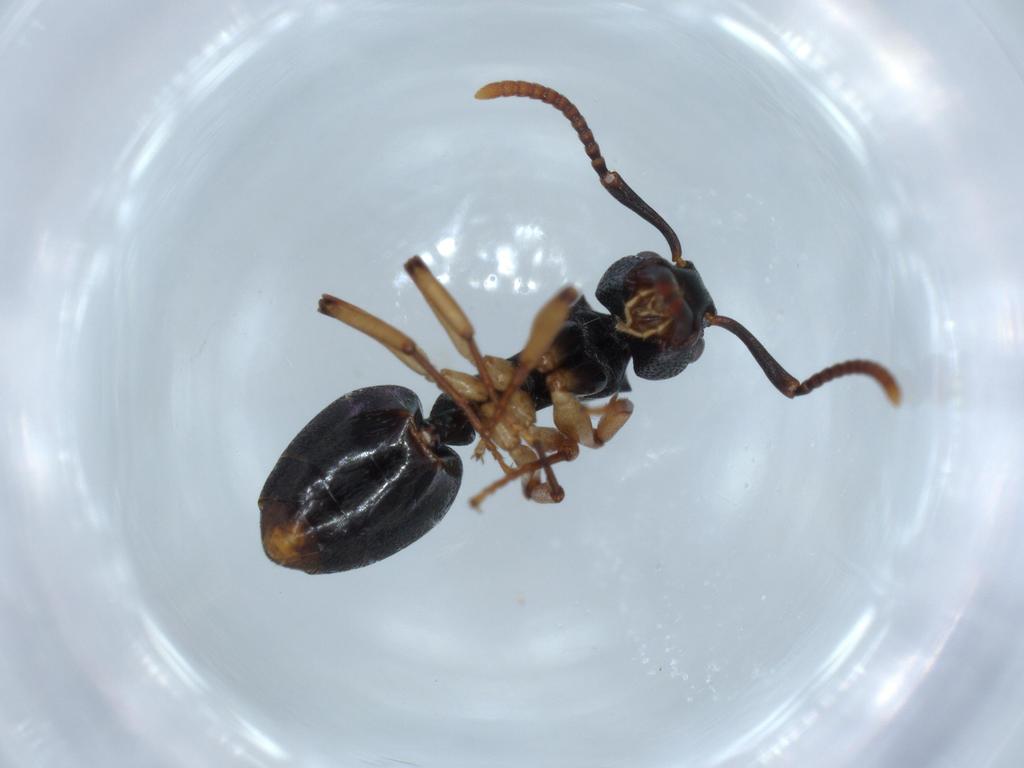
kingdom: Animalia
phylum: Arthropoda
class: Insecta
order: Hymenoptera
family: Formicidae
